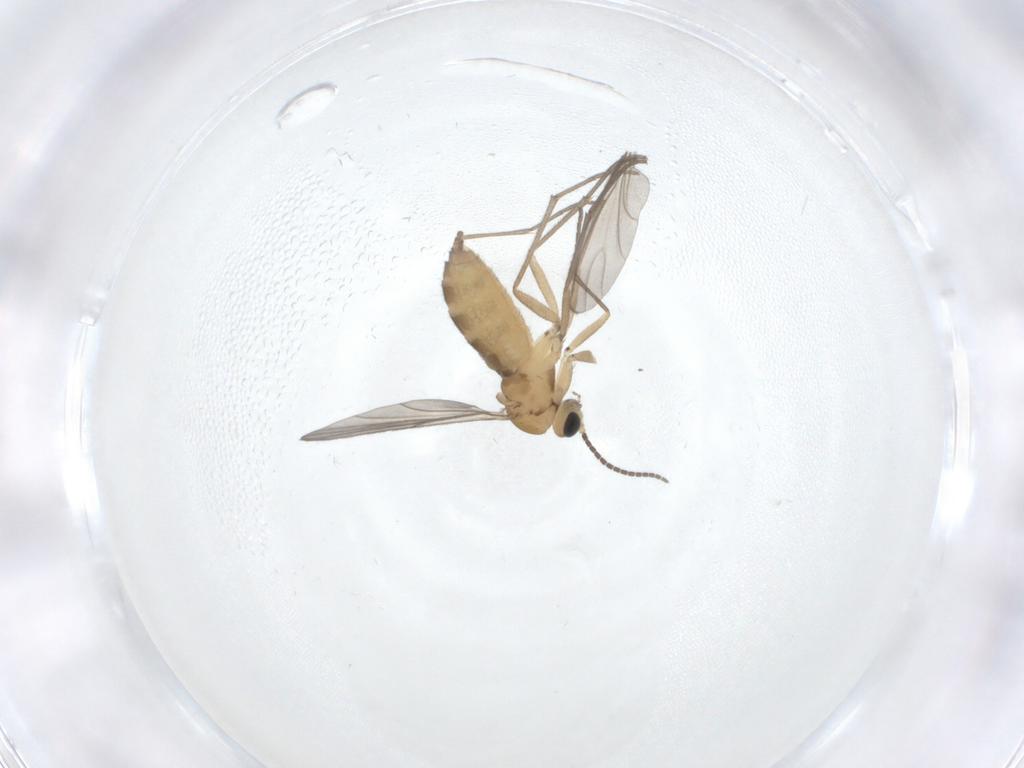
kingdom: Animalia
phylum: Arthropoda
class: Insecta
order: Diptera
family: Sciaridae
